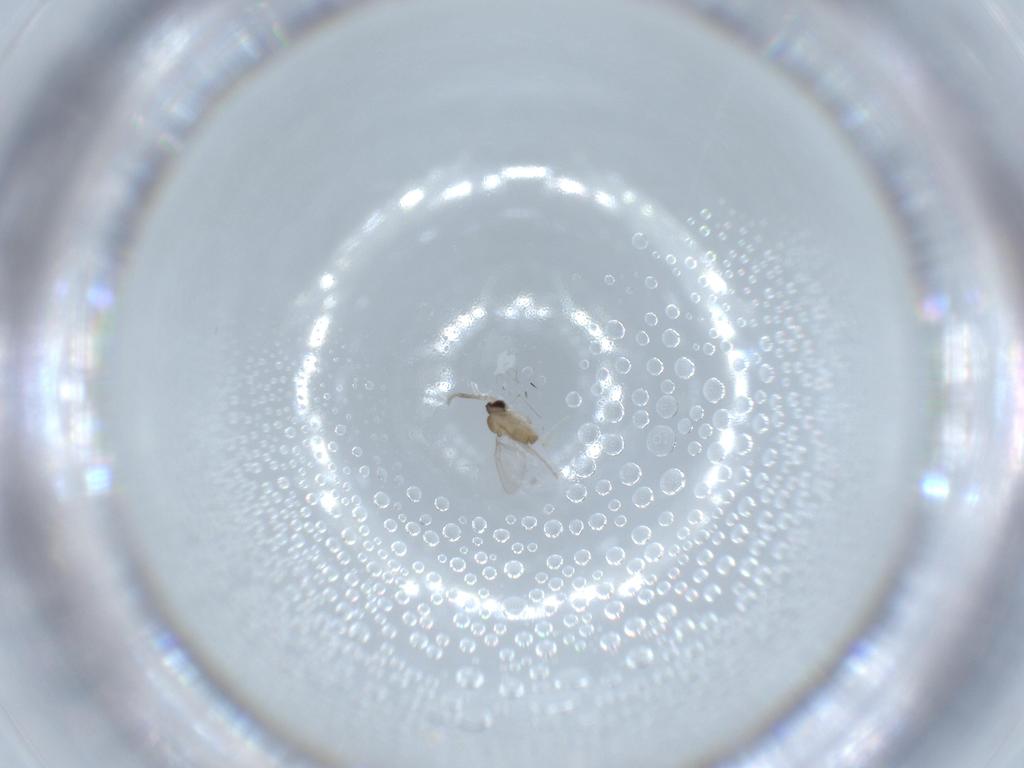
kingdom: Animalia
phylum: Arthropoda
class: Insecta
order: Diptera
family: Cecidomyiidae
